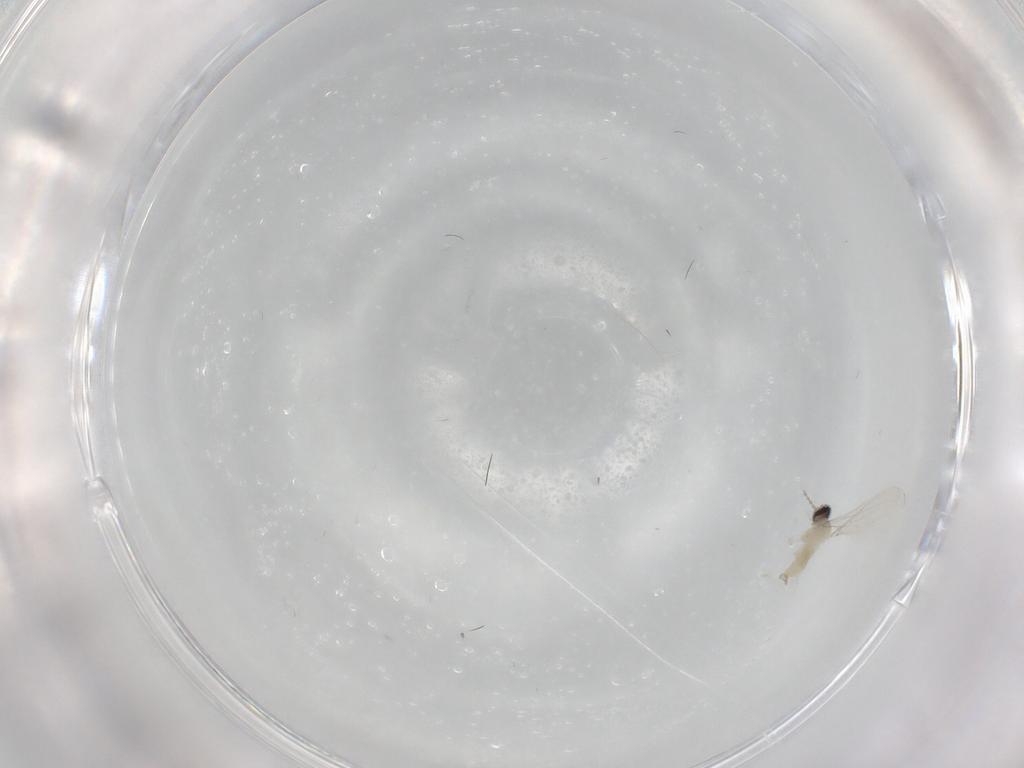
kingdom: Animalia
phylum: Arthropoda
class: Insecta
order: Diptera
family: Cecidomyiidae
